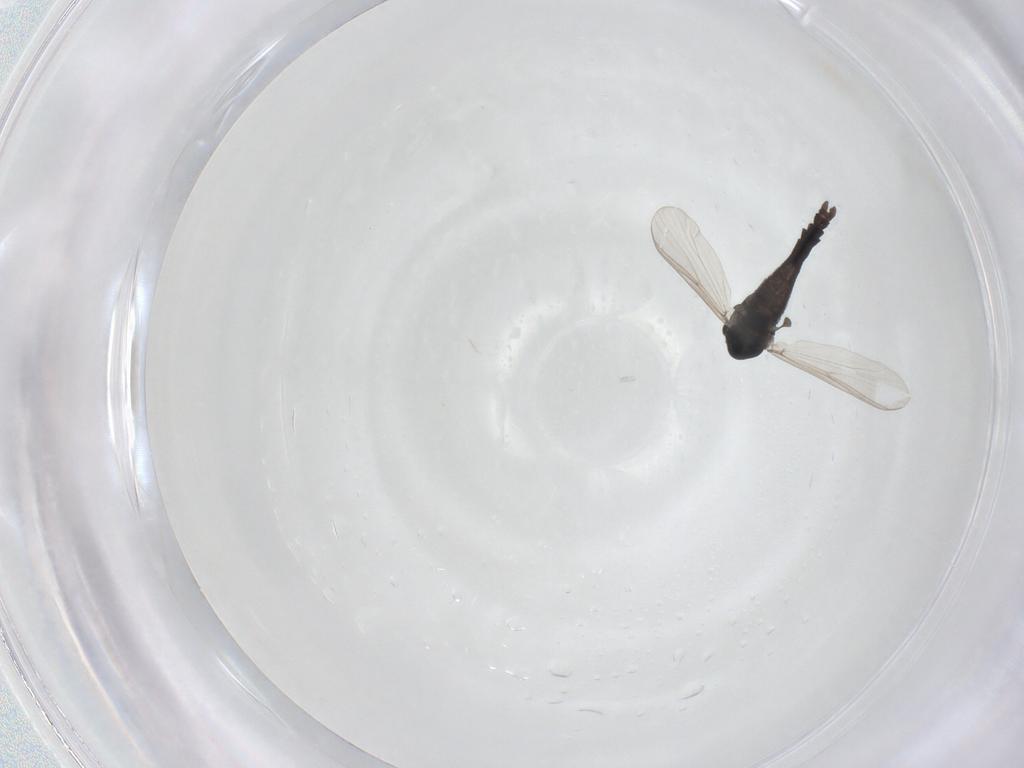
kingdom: Animalia
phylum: Arthropoda
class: Insecta
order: Diptera
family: Chironomidae
